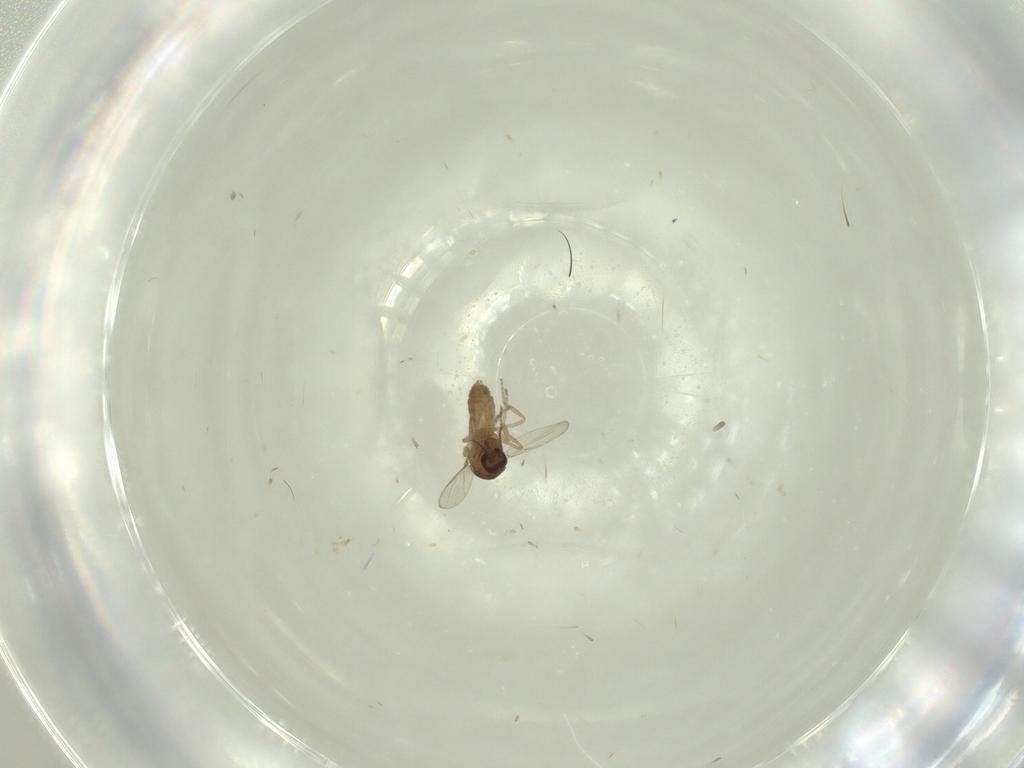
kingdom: Animalia
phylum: Arthropoda
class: Insecta
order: Diptera
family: Ceratopogonidae
